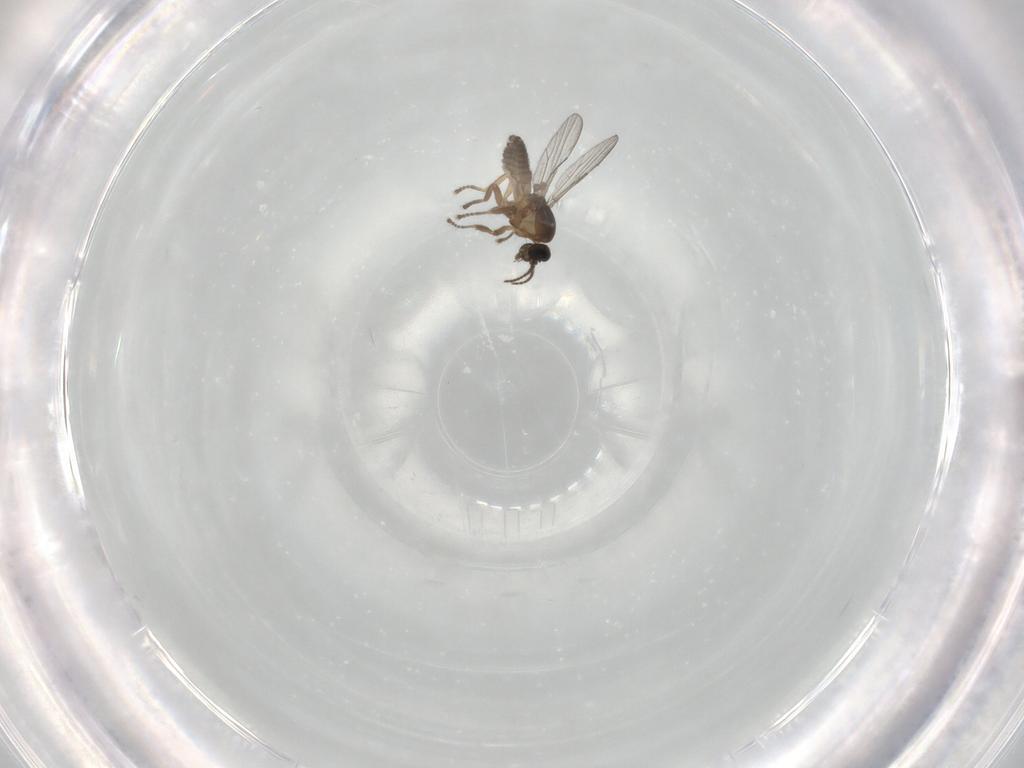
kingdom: Animalia
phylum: Arthropoda
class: Insecta
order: Diptera
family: Ceratopogonidae
